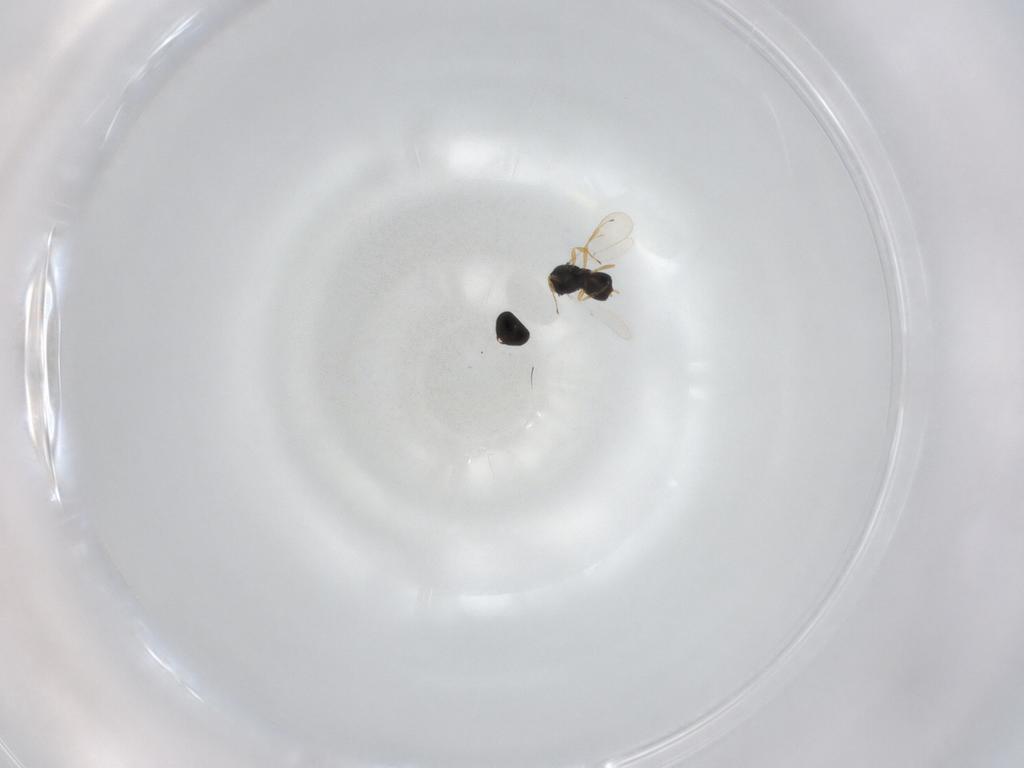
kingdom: Animalia
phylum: Arthropoda
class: Insecta
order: Hymenoptera
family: Scelionidae
